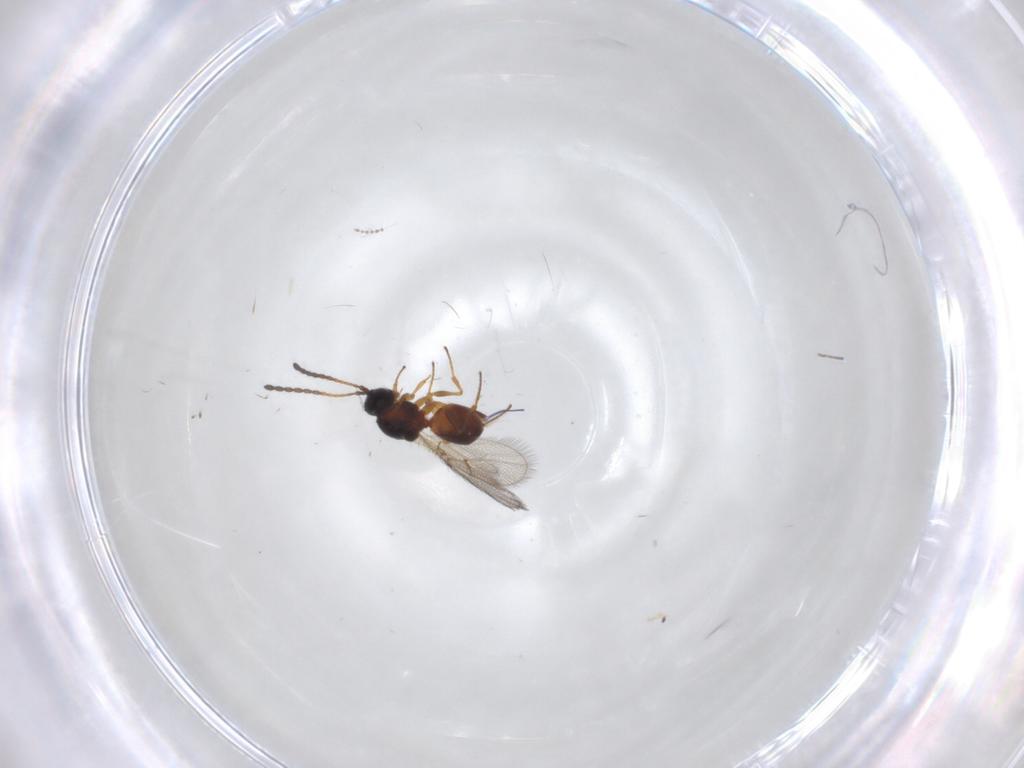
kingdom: Animalia
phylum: Arthropoda
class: Insecta
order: Hymenoptera
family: Figitidae
